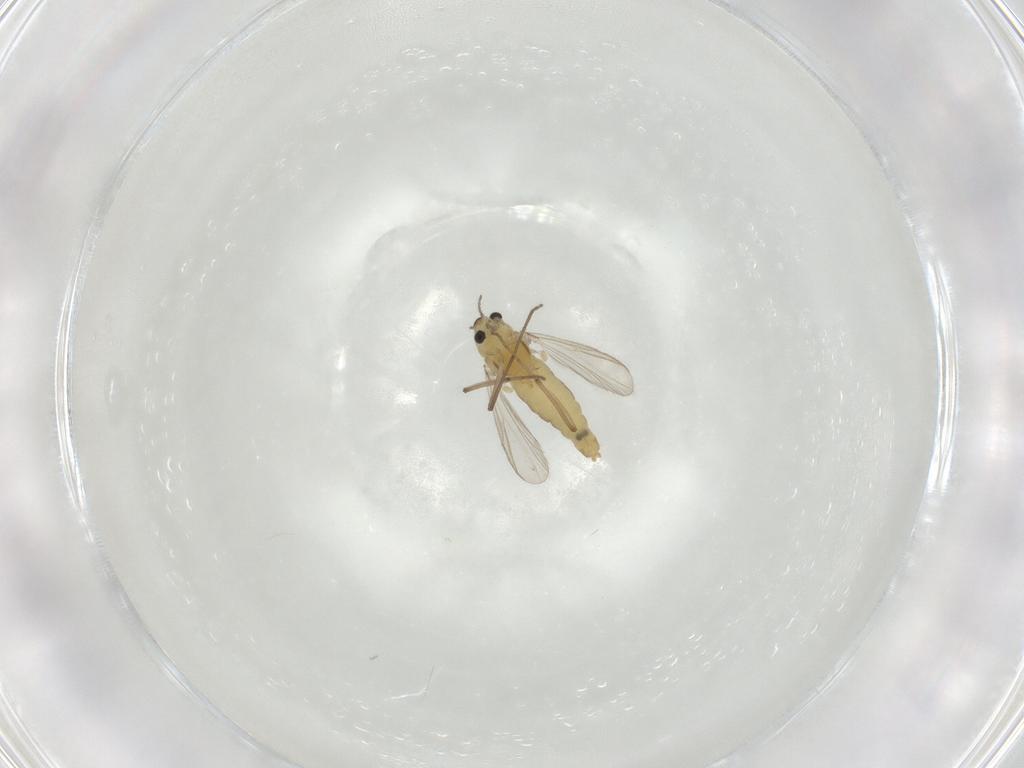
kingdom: Animalia
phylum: Arthropoda
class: Insecta
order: Diptera
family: Chironomidae
